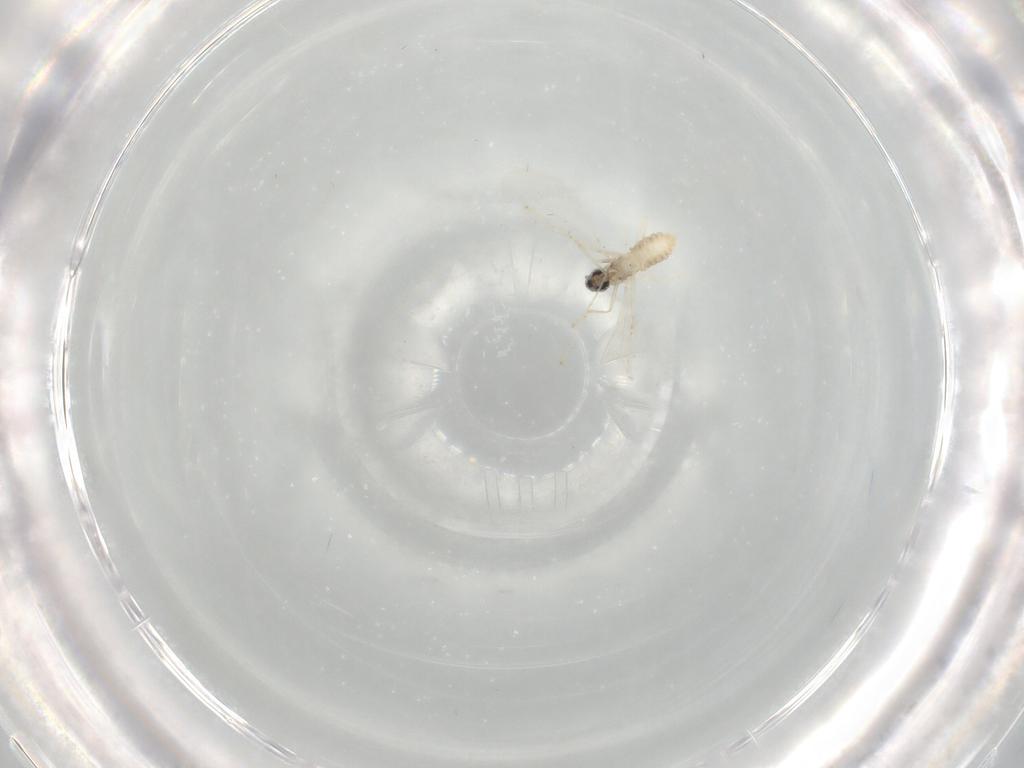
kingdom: Animalia
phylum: Arthropoda
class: Insecta
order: Diptera
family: Cecidomyiidae
